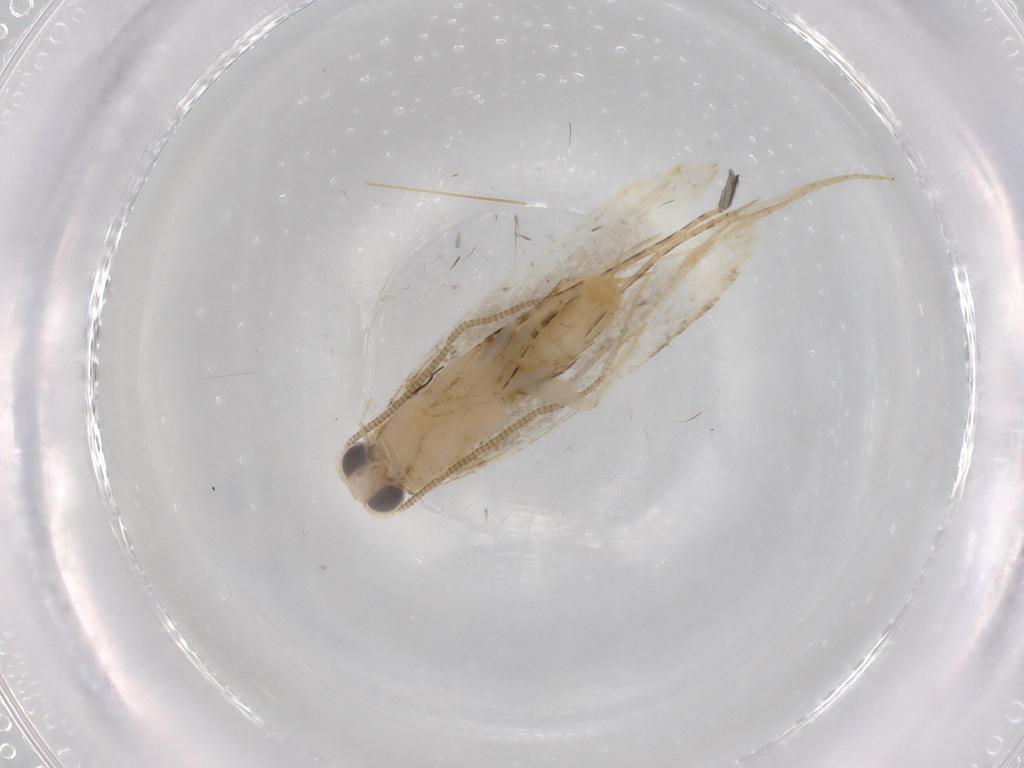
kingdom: Animalia
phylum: Arthropoda
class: Insecta
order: Lepidoptera
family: Tineidae
